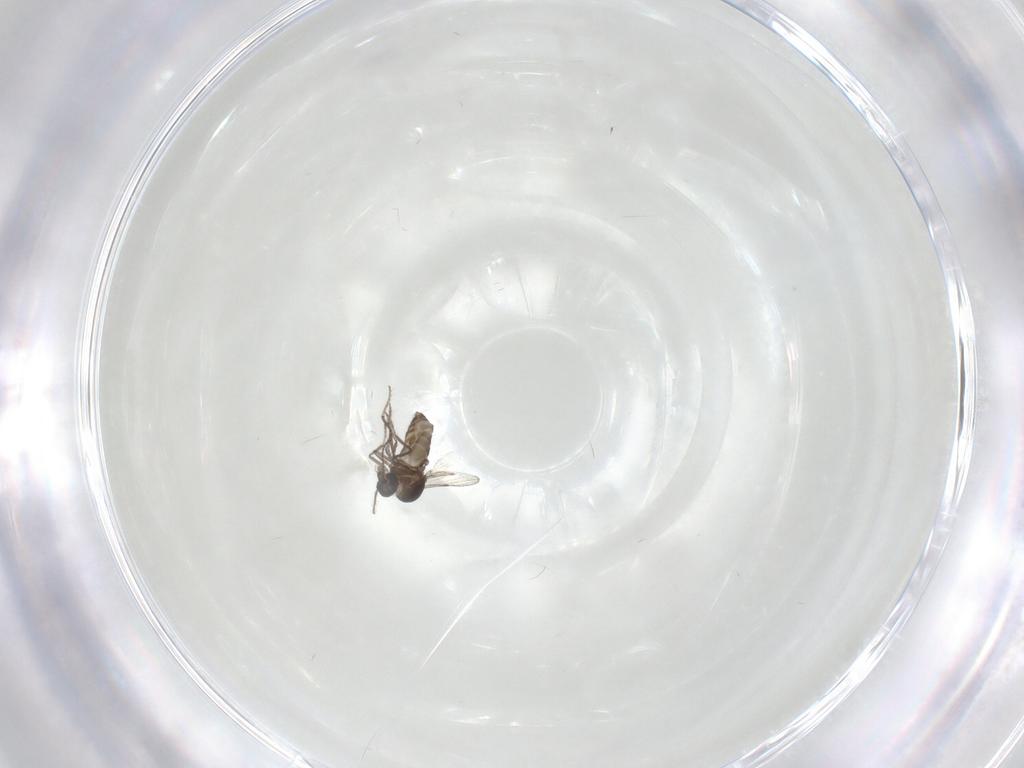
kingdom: Animalia
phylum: Arthropoda
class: Insecta
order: Diptera
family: Ceratopogonidae
